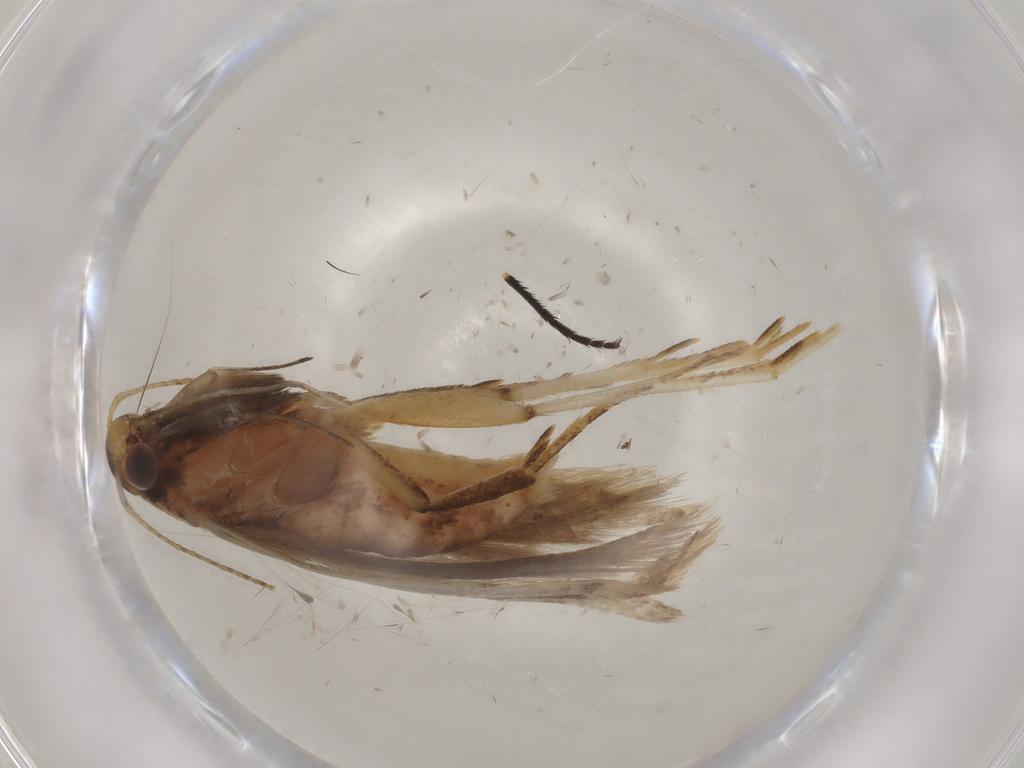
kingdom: Animalia
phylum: Arthropoda
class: Insecta
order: Lepidoptera
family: Gelechiidae
